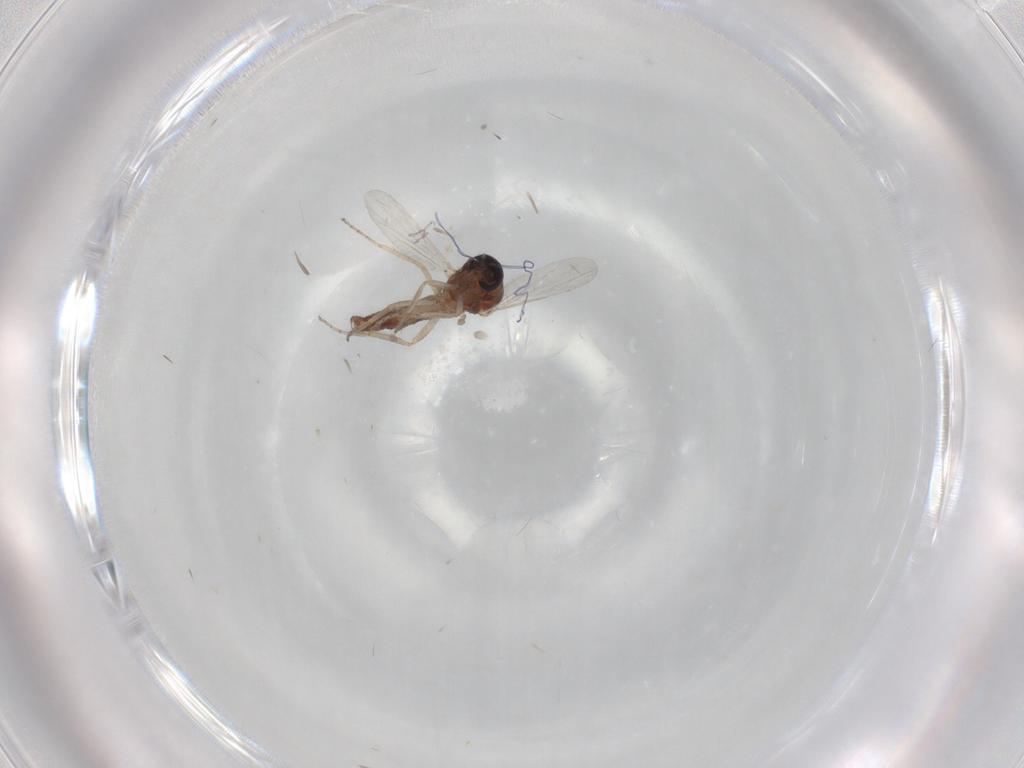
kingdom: Animalia
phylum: Arthropoda
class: Insecta
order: Diptera
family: Ceratopogonidae
